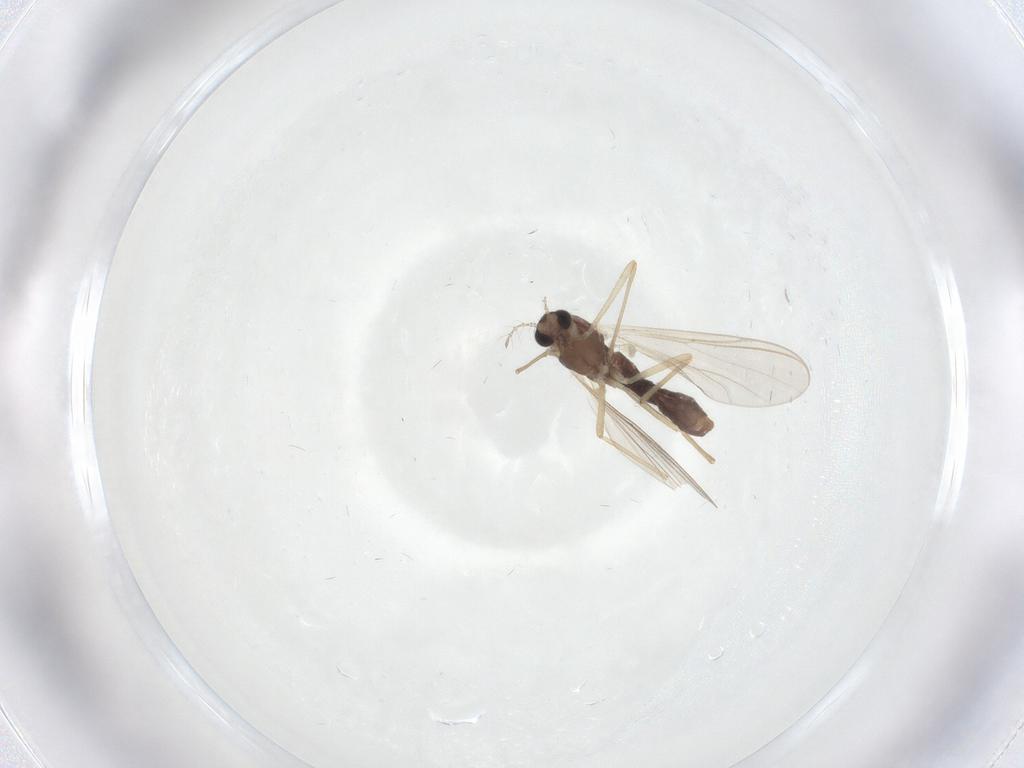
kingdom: Animalia
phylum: Arthropoda
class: Insecta
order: Diptera
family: Chironomidae
